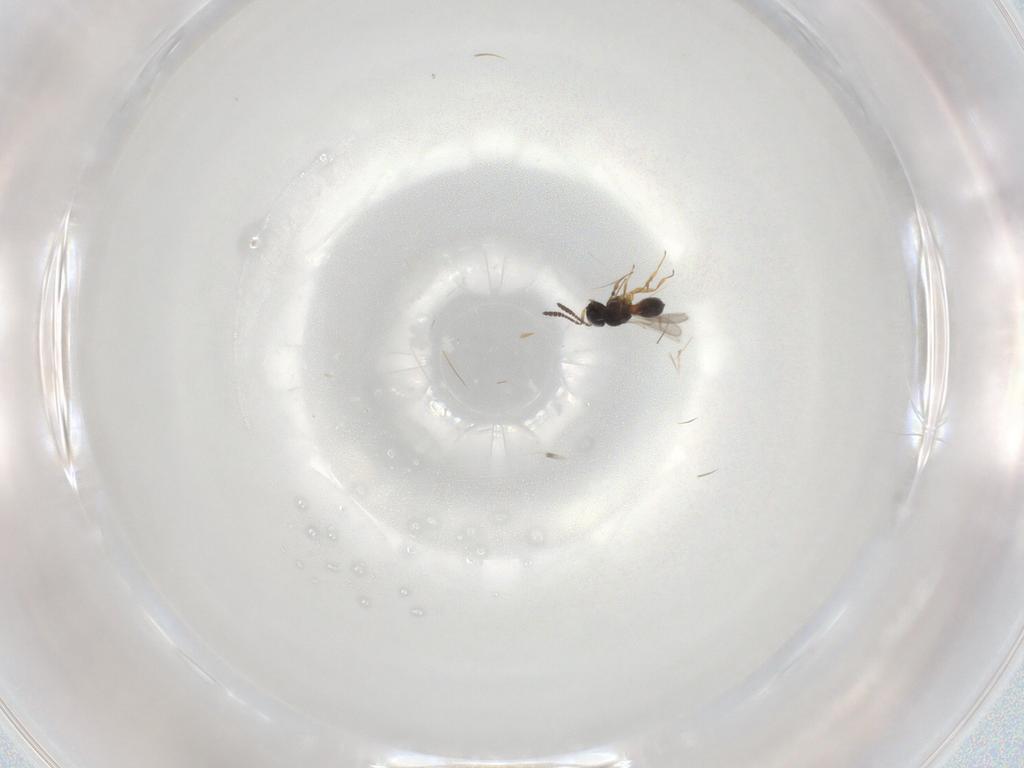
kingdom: Animalia
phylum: Arthropoda
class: Insecta
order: Hymenoptera
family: Scelionidae
